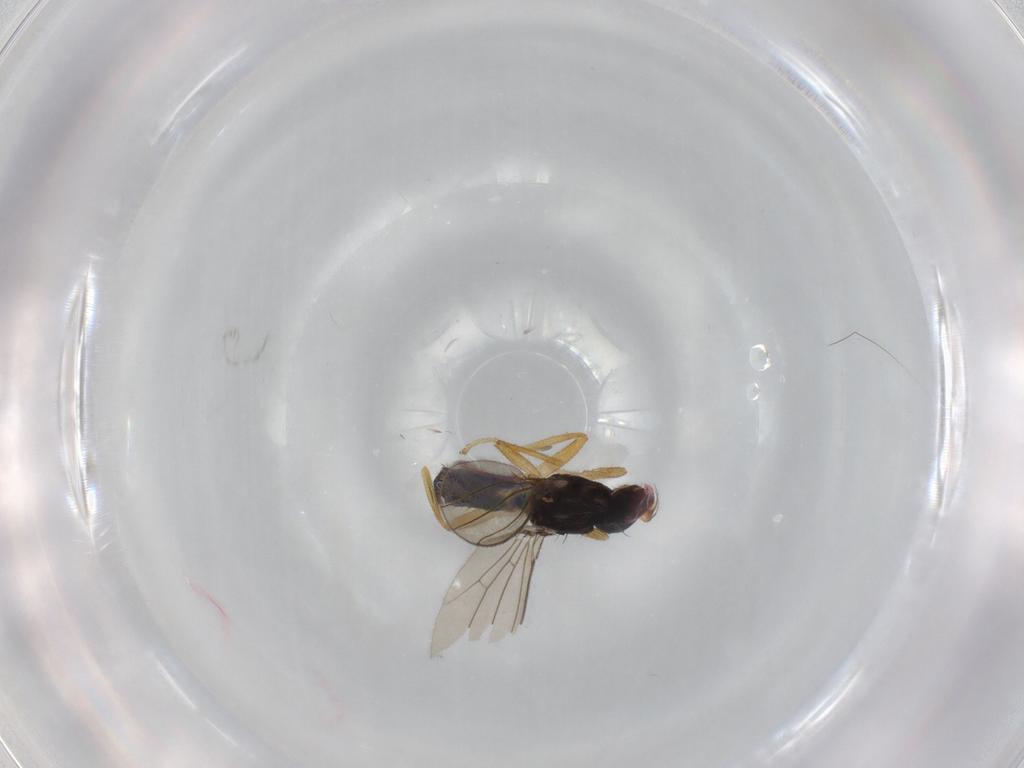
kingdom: Animalia
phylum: Arthropoda
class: Insecta
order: Diptera
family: Anthomyzidae
